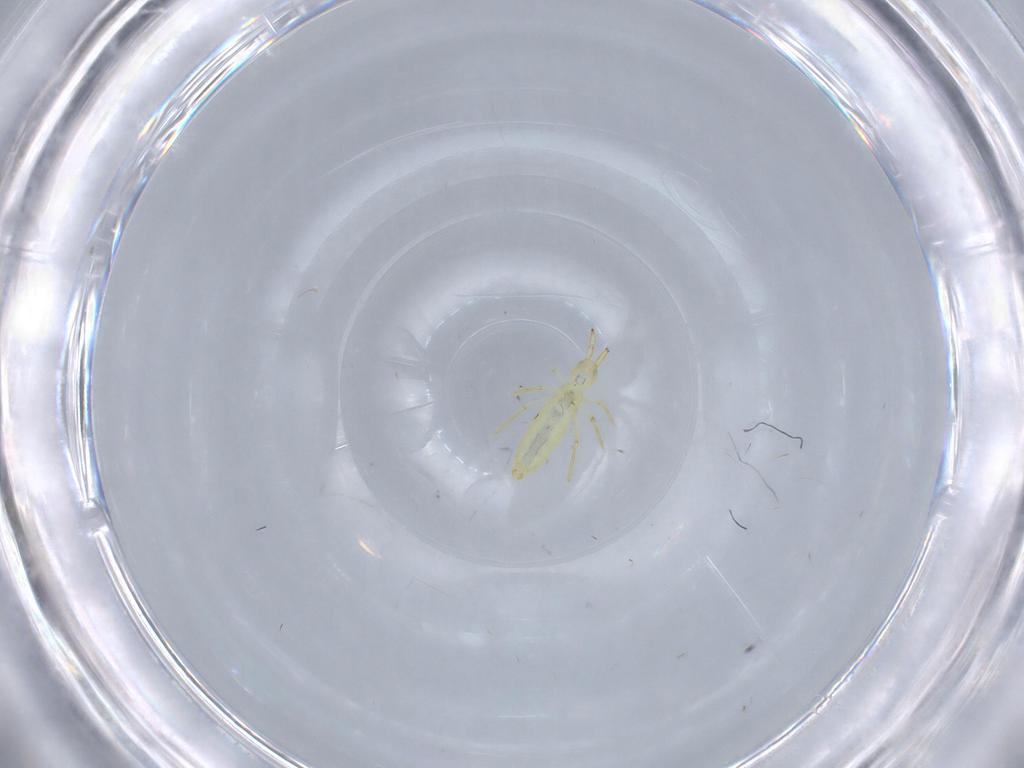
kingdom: Animalia
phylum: Arthropoda
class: Collembola
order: Entomobryomorpha
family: Paronellidae
